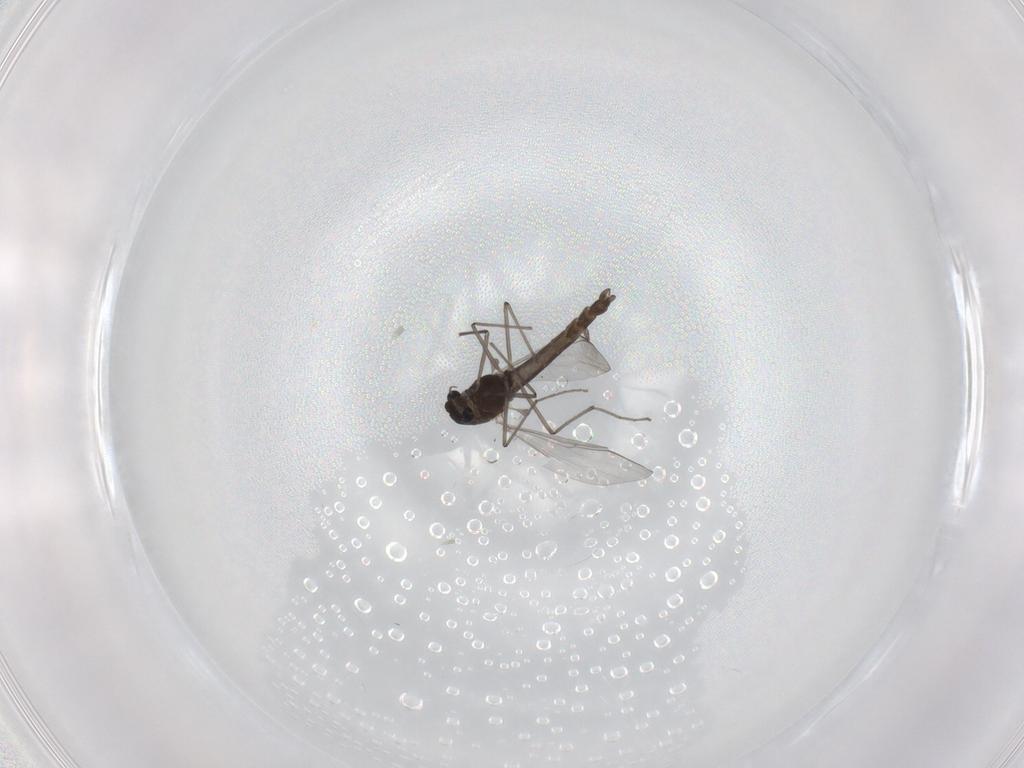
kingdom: Animalia
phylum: Arthropoda
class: Insecta
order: Diptera
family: Chironomidae
